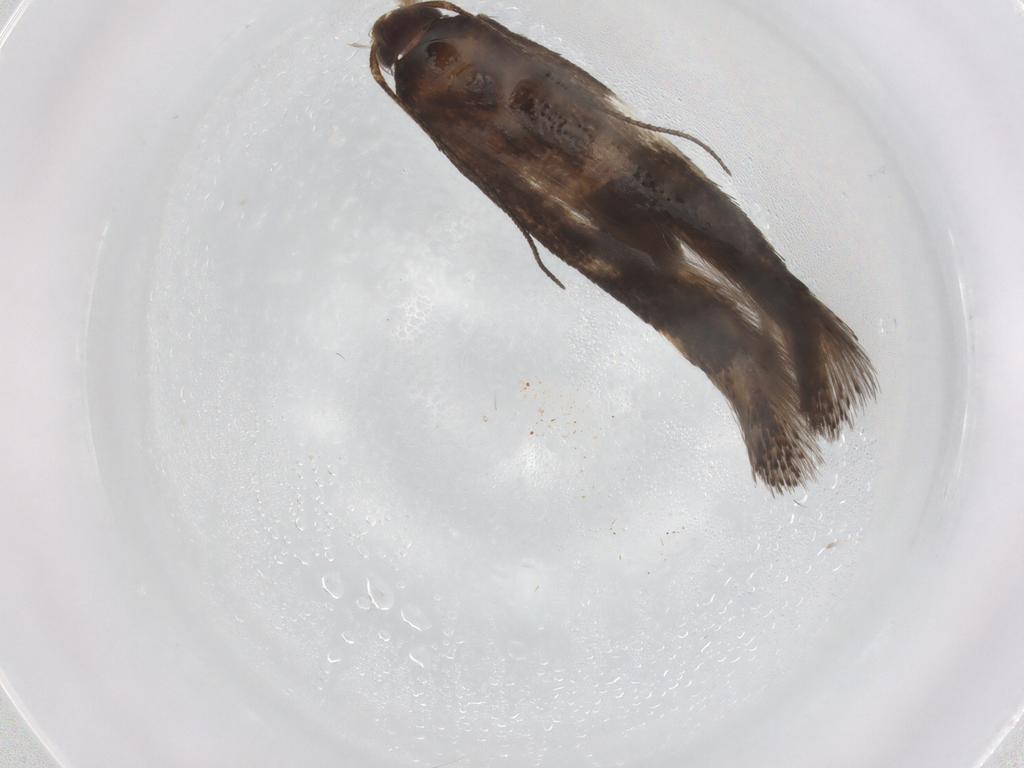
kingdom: Animalia
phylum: Arthropoda
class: Insecta
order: Lepidoptera
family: Gelechiidae
